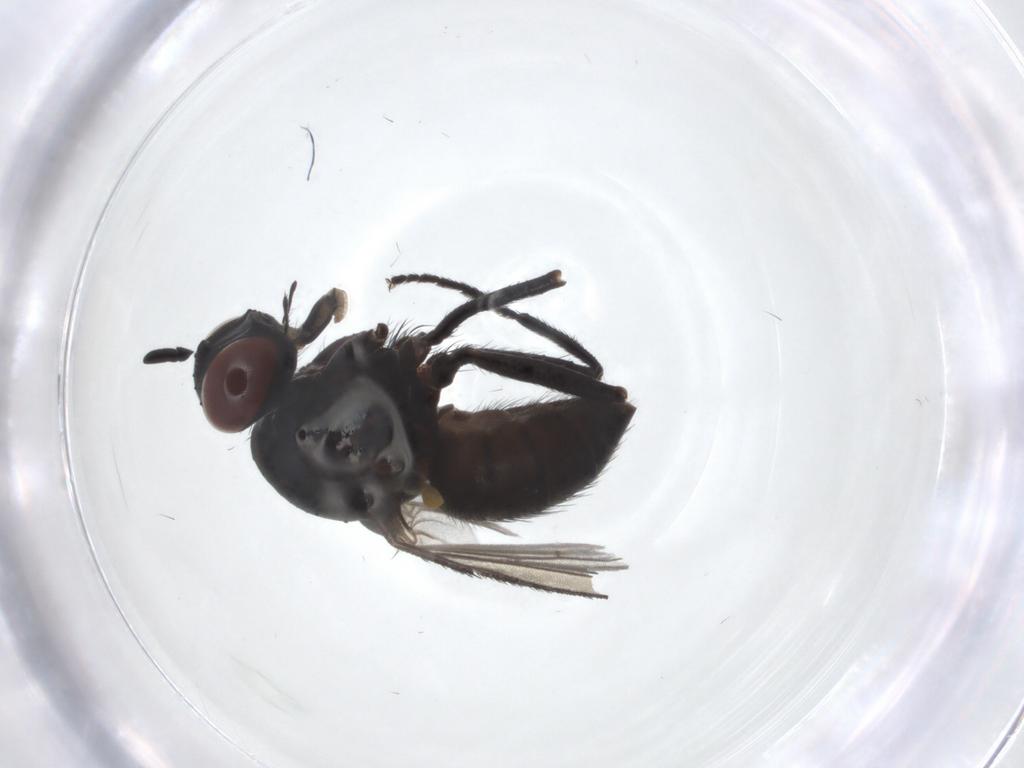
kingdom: Animalia
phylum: Arthropoda
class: Insecta
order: Diptera
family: Muscidae
